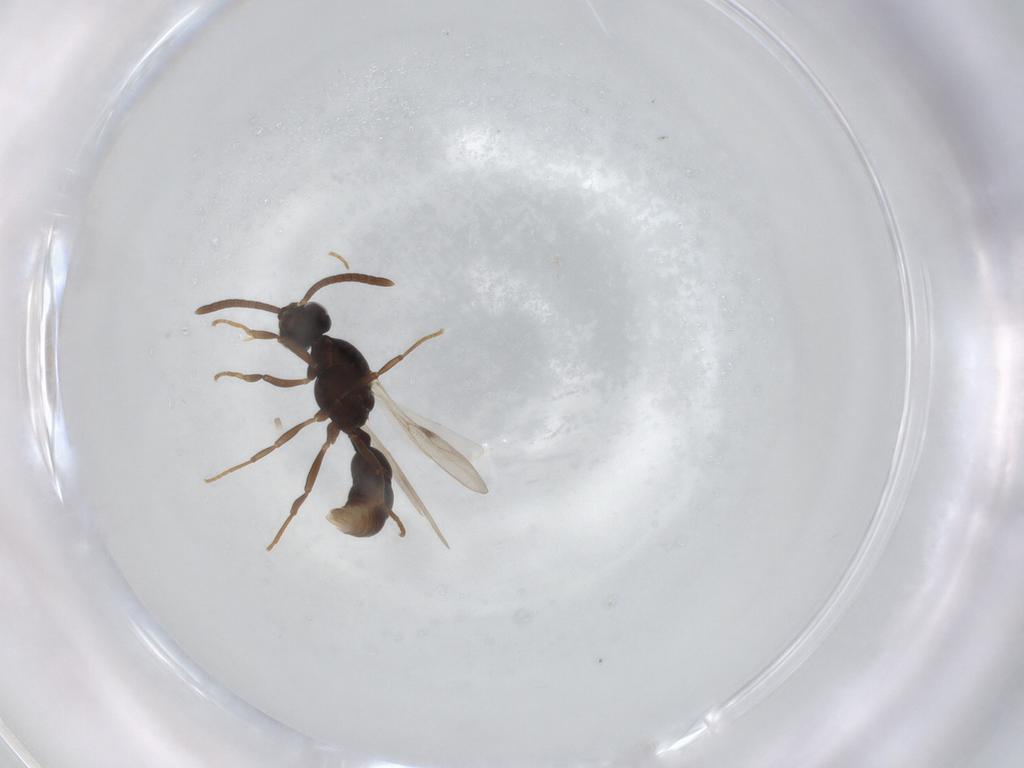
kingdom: Animalia
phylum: Arthropoda
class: Insecta
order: Hymenoptera
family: Formicidae
